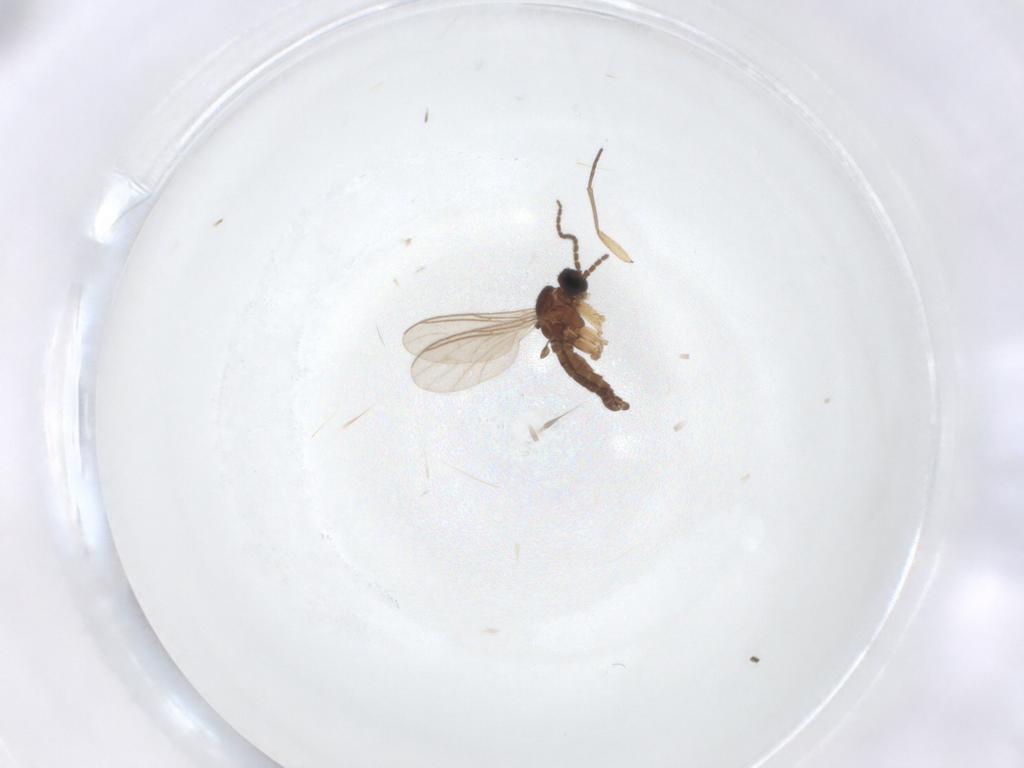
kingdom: Animalia
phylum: Arthropoda
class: Insecta
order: Diptera
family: Sciaridae
